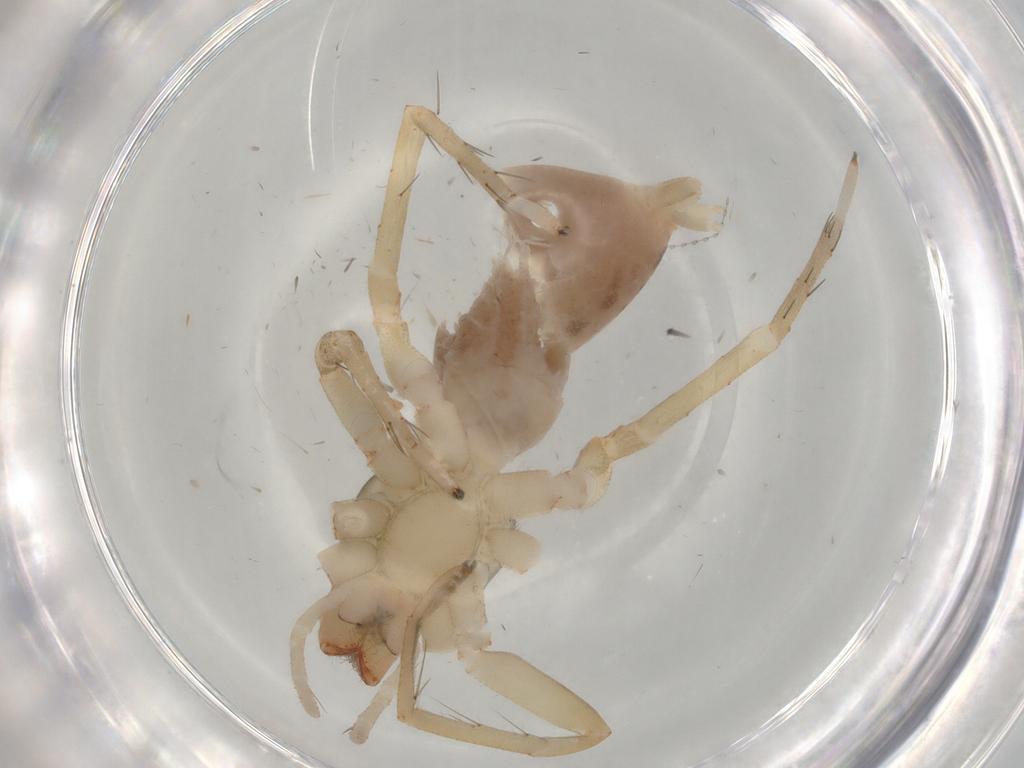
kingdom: Animalia
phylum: Arthropoda
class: Arachnida
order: Araneae
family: Clubionidae
